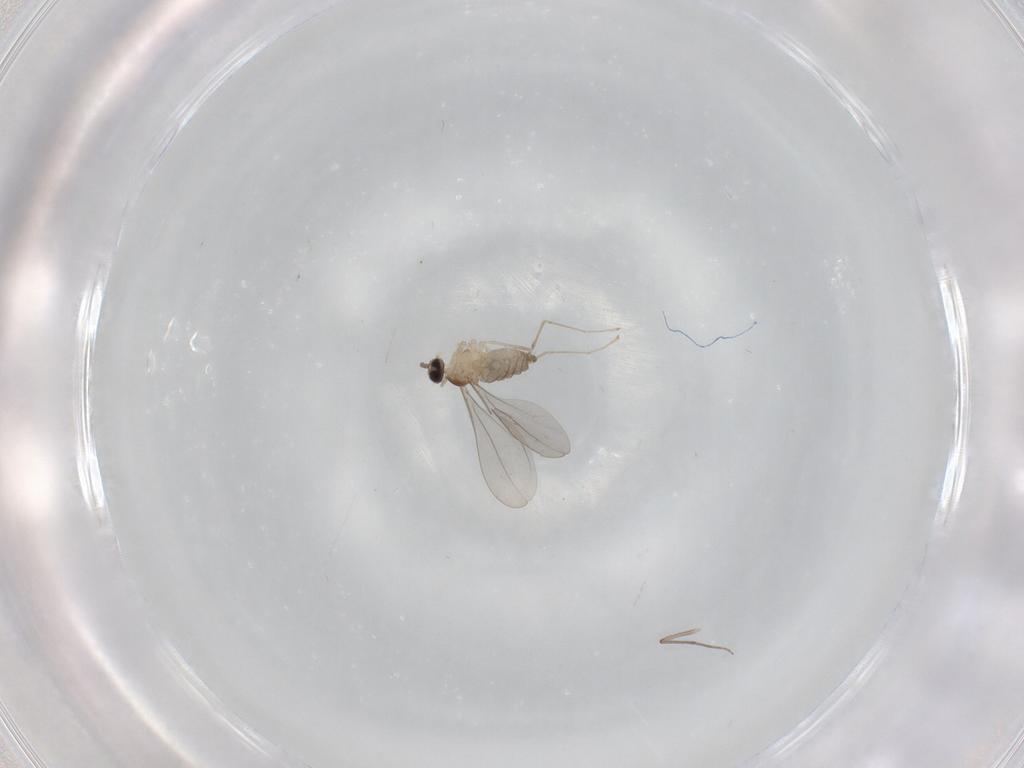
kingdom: Animalia
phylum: Arthropoda
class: Insecta
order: Diptera
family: Cecidomyiidae
